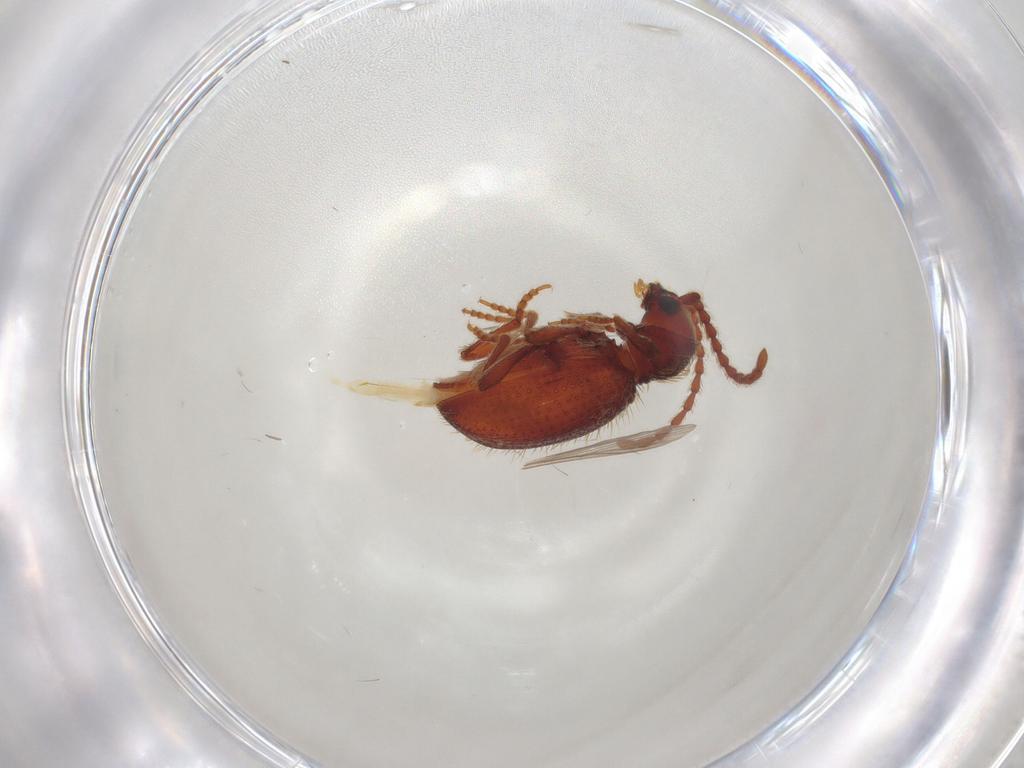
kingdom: Animalia
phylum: Arthropoda
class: Insecta
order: Coleoptera
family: Ptinidae
